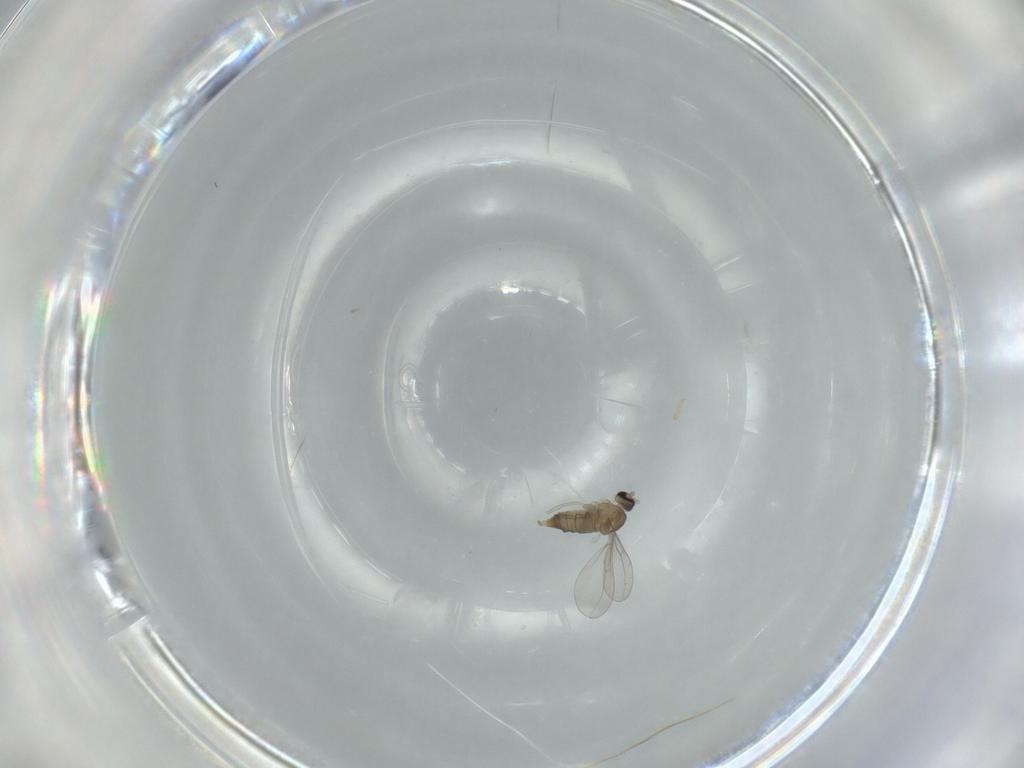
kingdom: Animalia
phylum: Arthropoda
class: Insecta
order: Diptera
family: Cecidomyiidae
